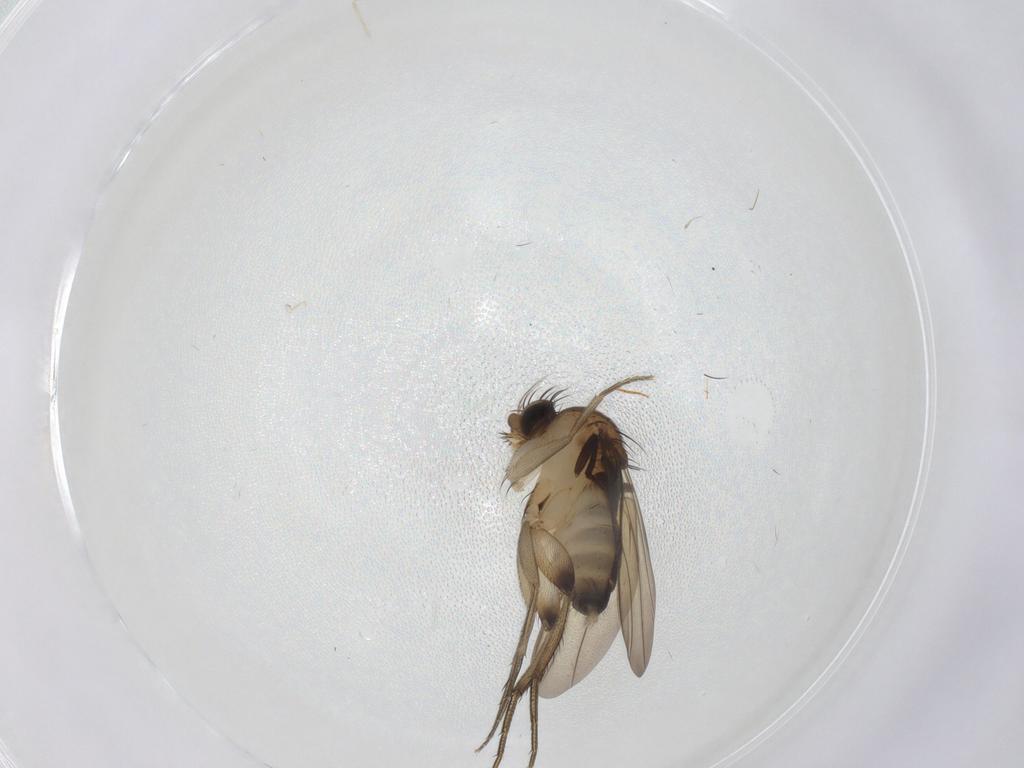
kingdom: Animalia
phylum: Arthropoda
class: Insecta
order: Diptera
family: Sphaeroceridae
